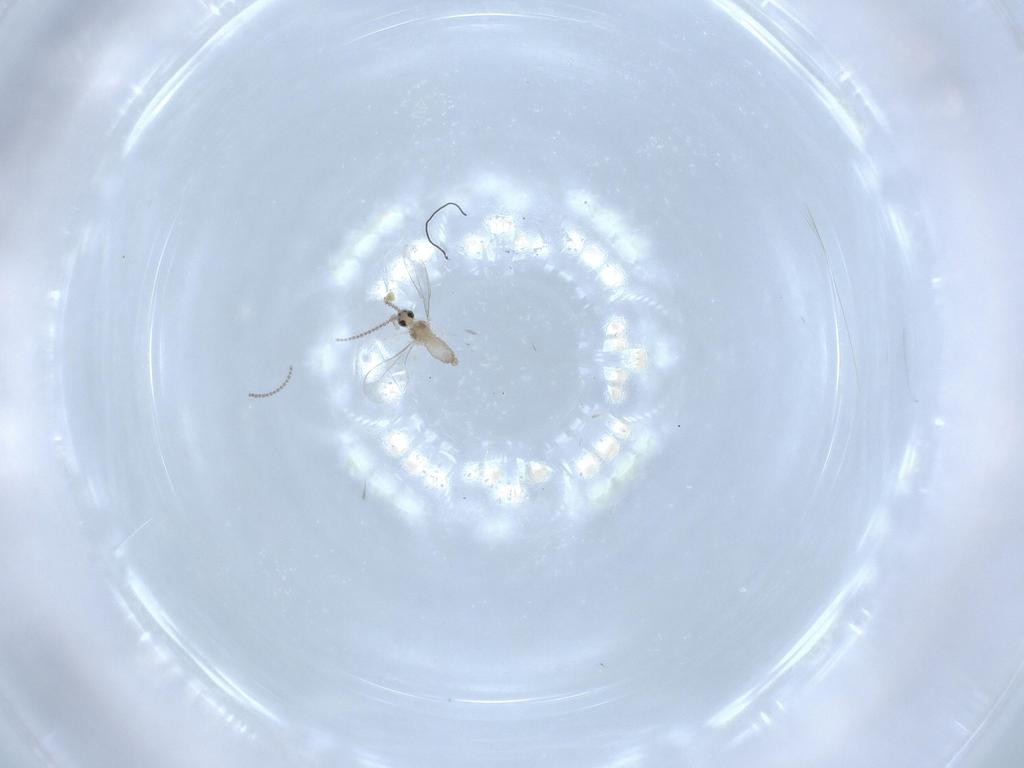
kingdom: Animalia
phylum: Arthropoda
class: Insecta
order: Diptera
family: Cecidomyiidae
